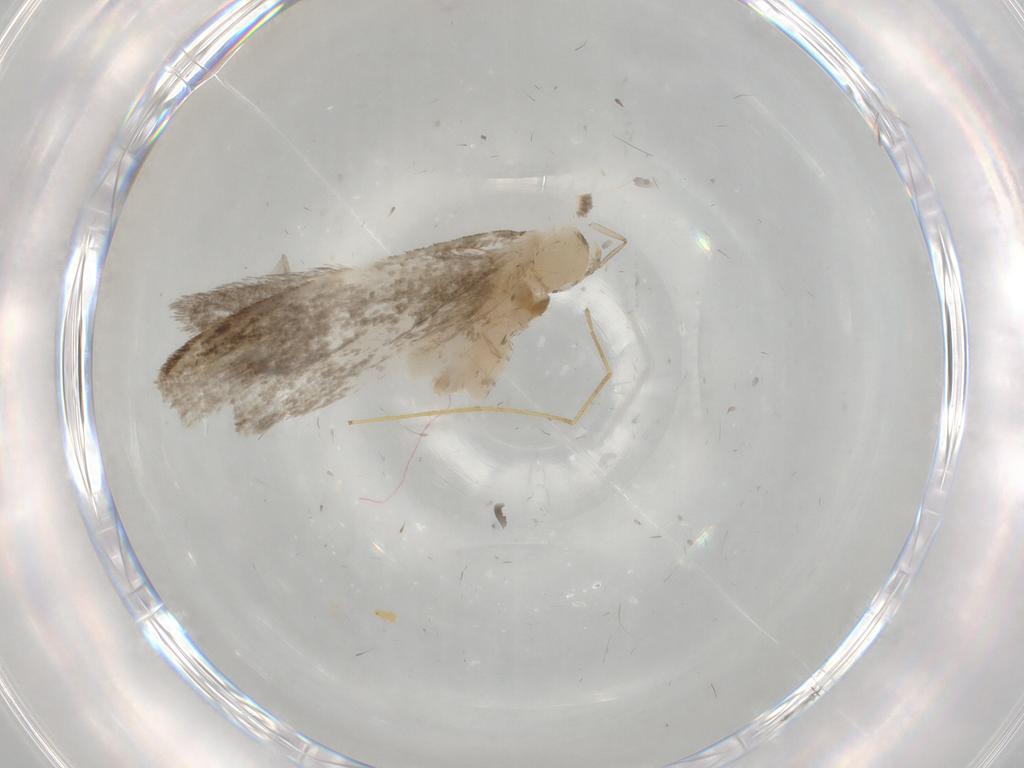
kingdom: Animalia
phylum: Arthropoda
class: Insecta
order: Lepidoptera
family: Tineidae
